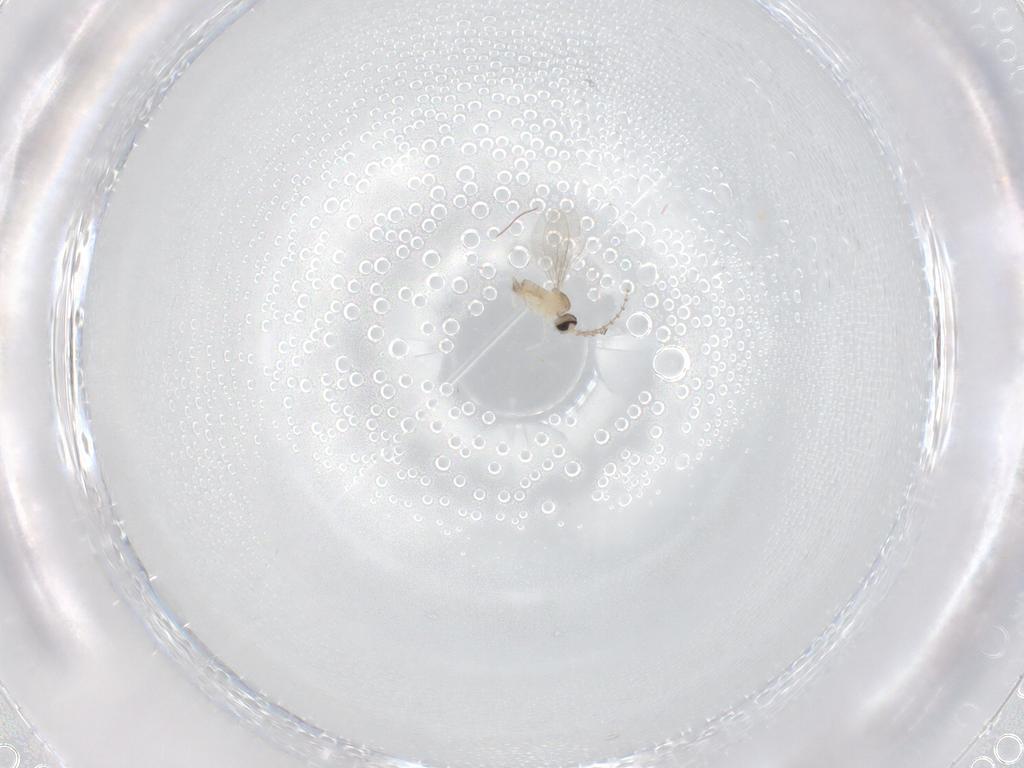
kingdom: Animalia
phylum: Arthropoda
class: Insecta
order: Diptera
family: Cecidomyiidae
